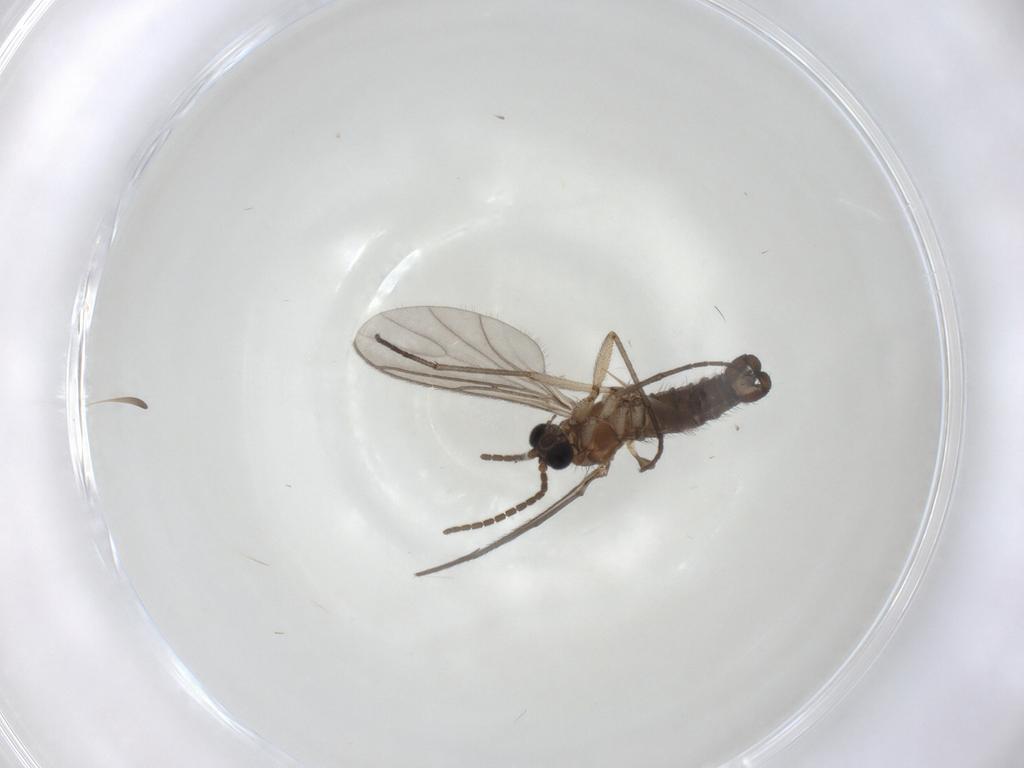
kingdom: Animalia
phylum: Arthropoda
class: Insecta
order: Diptera
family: Sciaridae
